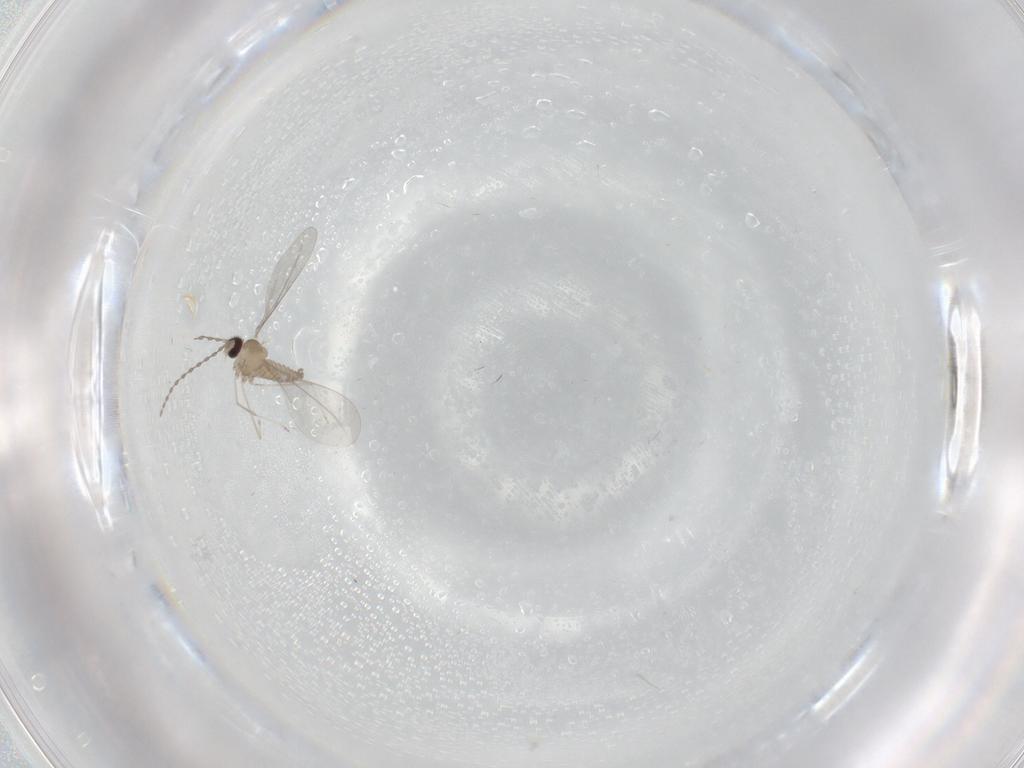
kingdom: Animalia
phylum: Arthropoda
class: Insecta
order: Diptera
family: Cecidomyiidae
